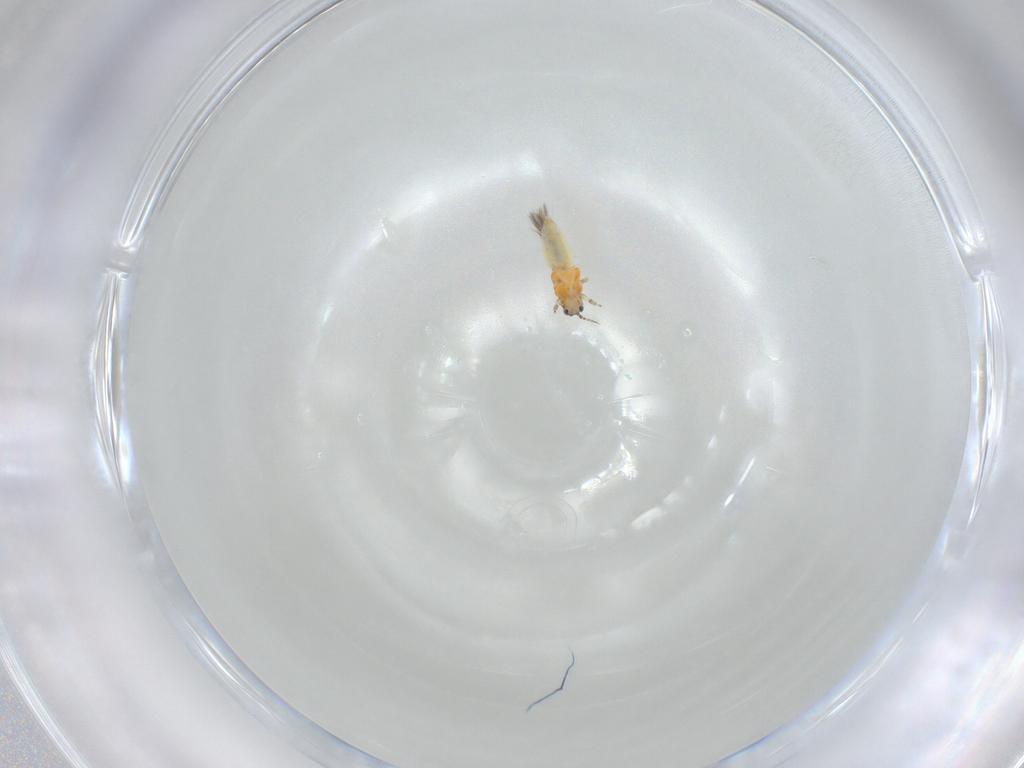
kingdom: Animalia
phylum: Arthropoda
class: Insecta
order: Thysanoptera
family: Thripidae
